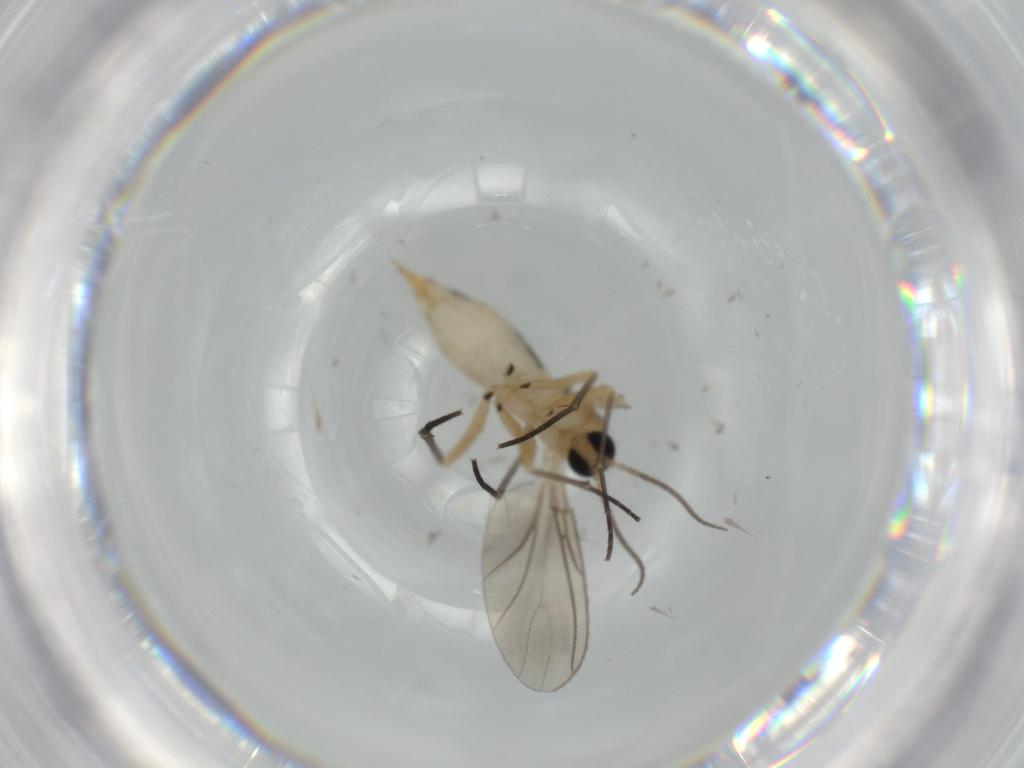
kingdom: Animalia
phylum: Arthropoda
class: Insecta
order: Diptera
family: Sciaridae
